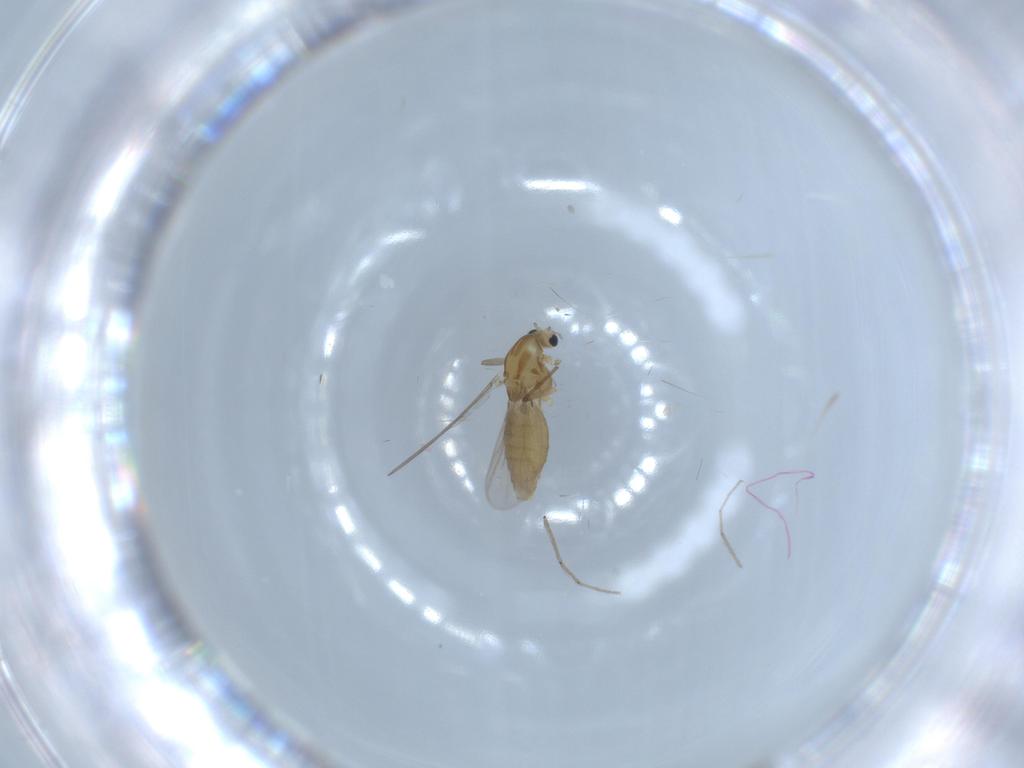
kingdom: Animalia
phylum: Arthropoda
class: Insecta
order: Diptera
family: Chironomidae
